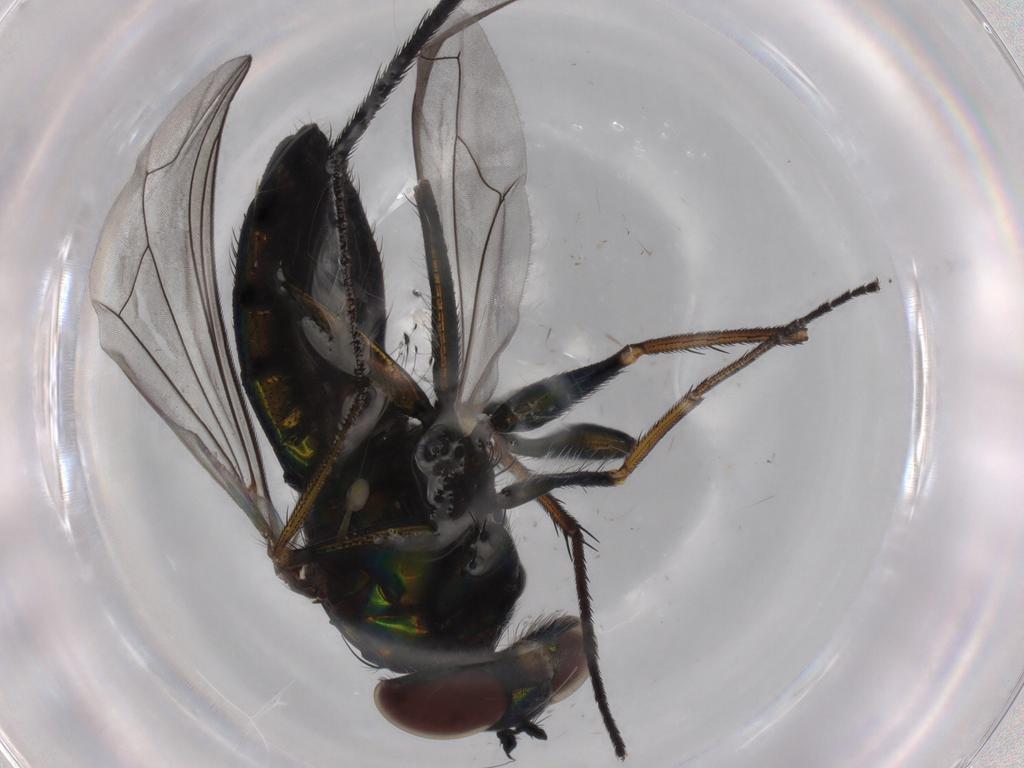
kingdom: Animalia
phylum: Arthropoda
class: Insecta
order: Diptera
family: Dolichopodidae
